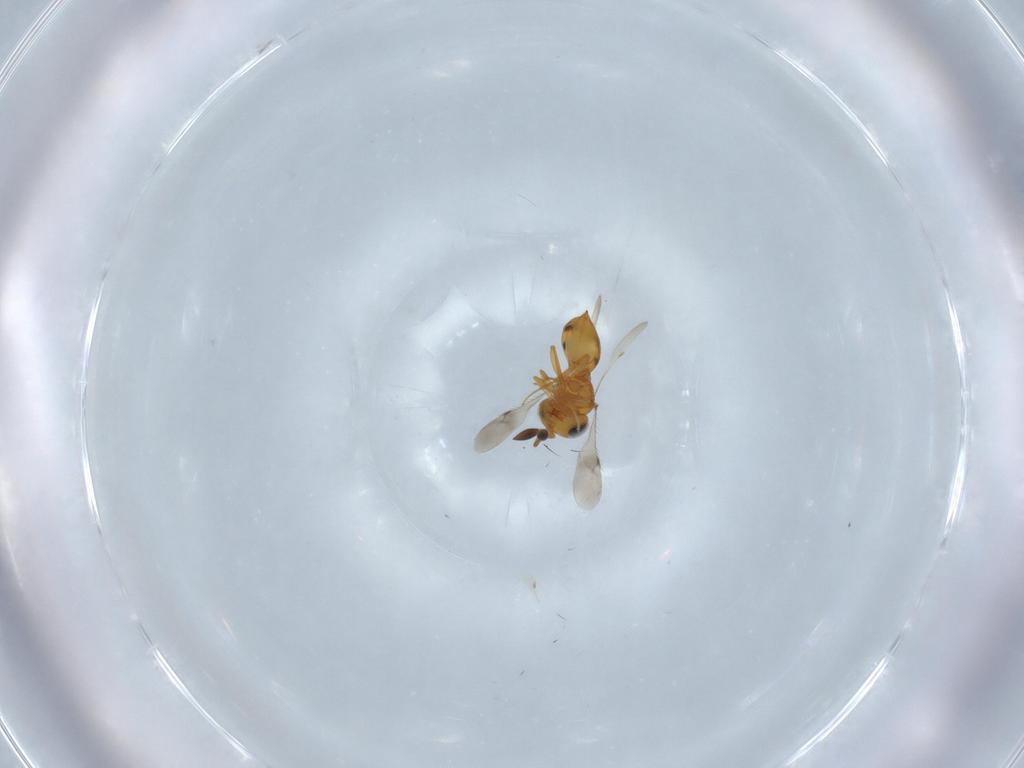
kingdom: Animalia
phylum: Arthropoda
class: Insecta
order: Hymenoptera
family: Scelionidae
